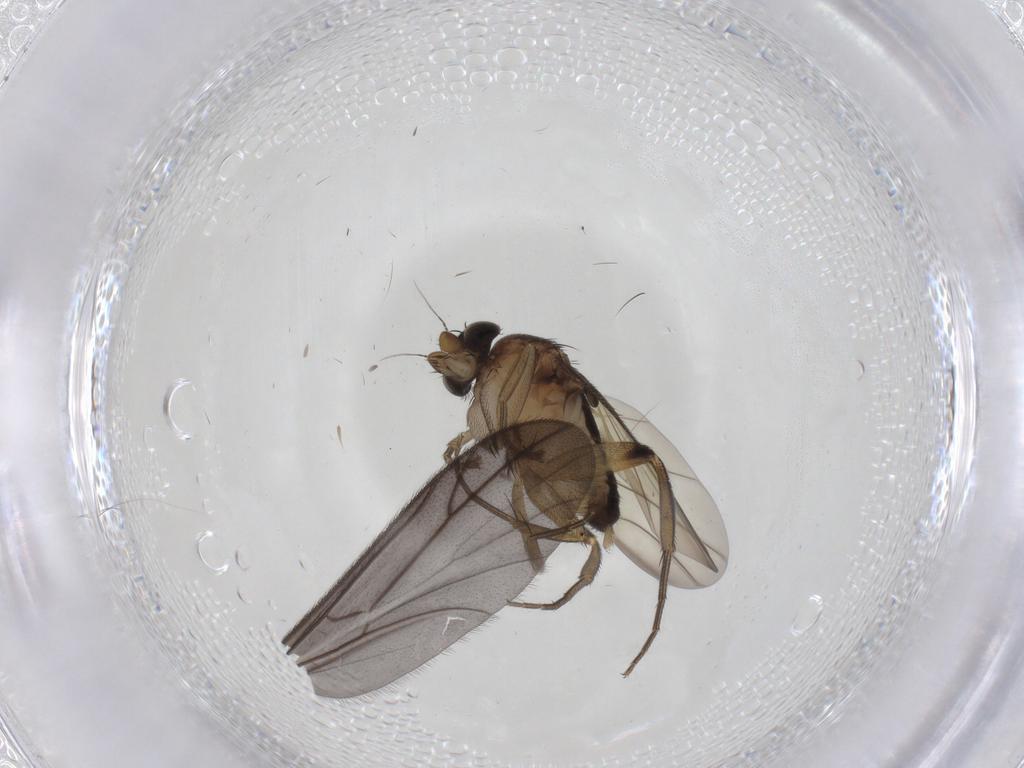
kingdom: Animalia
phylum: Arthropoda
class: Insecta
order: Diptera
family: Phoridae
